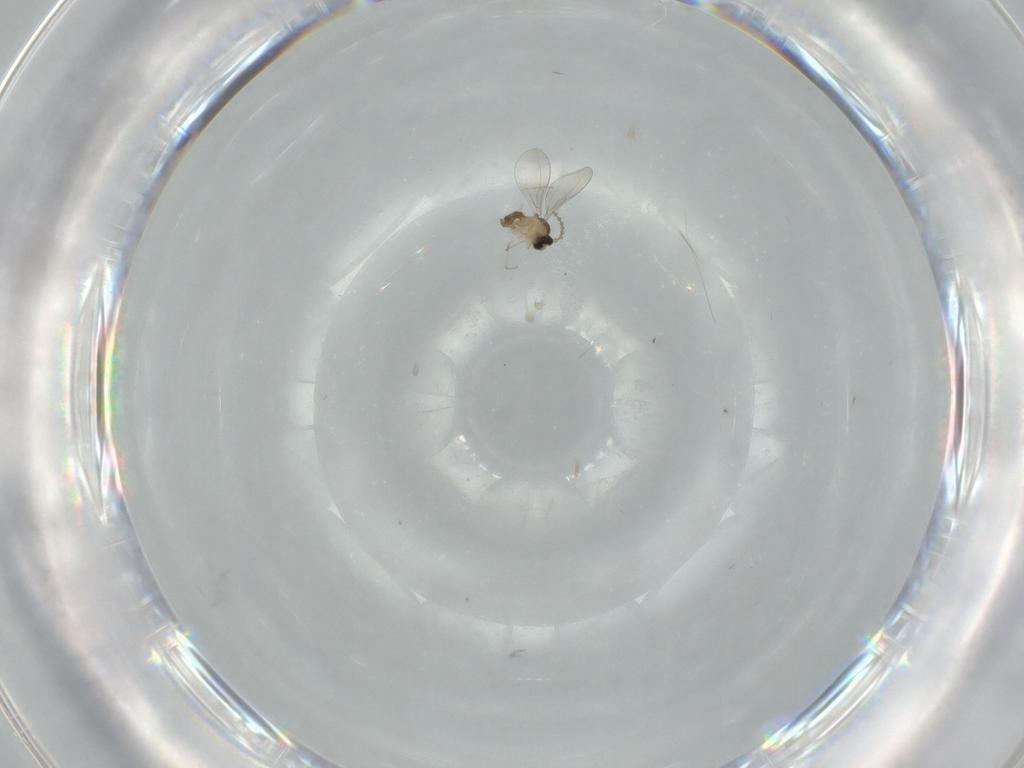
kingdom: Animalia
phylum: Arthropoda
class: Insecta
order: Diptera
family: Cecidomyiidae
